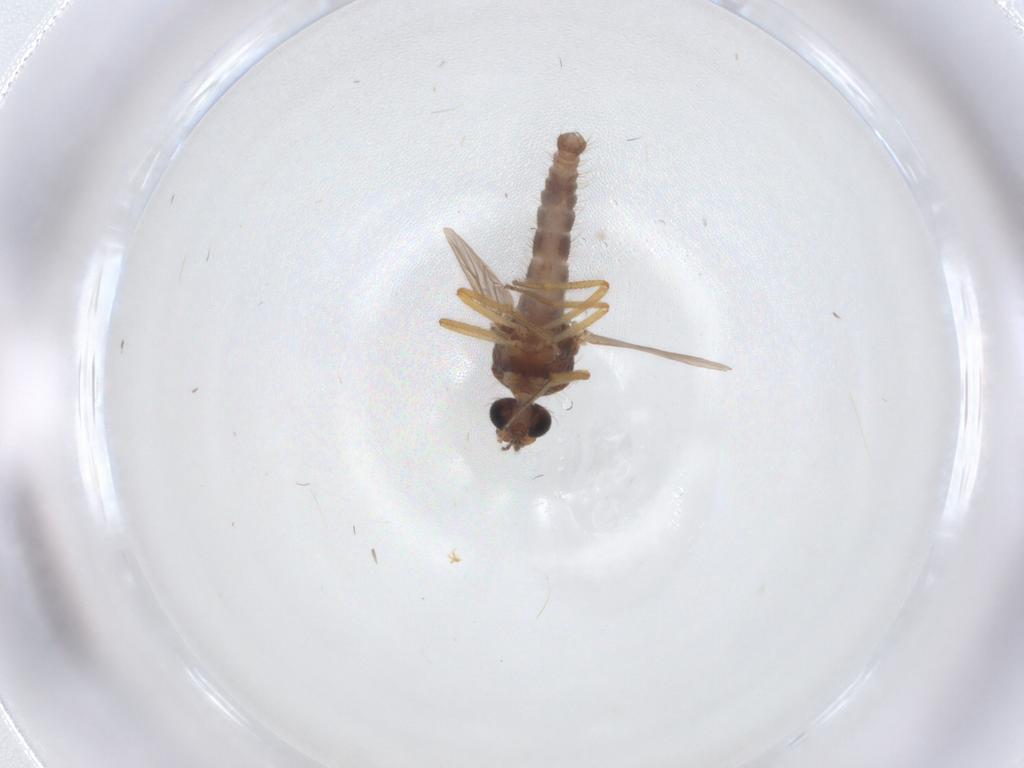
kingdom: Animalia
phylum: Arthropoda
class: Insecta
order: Diptera
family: Ceratopogonidae
